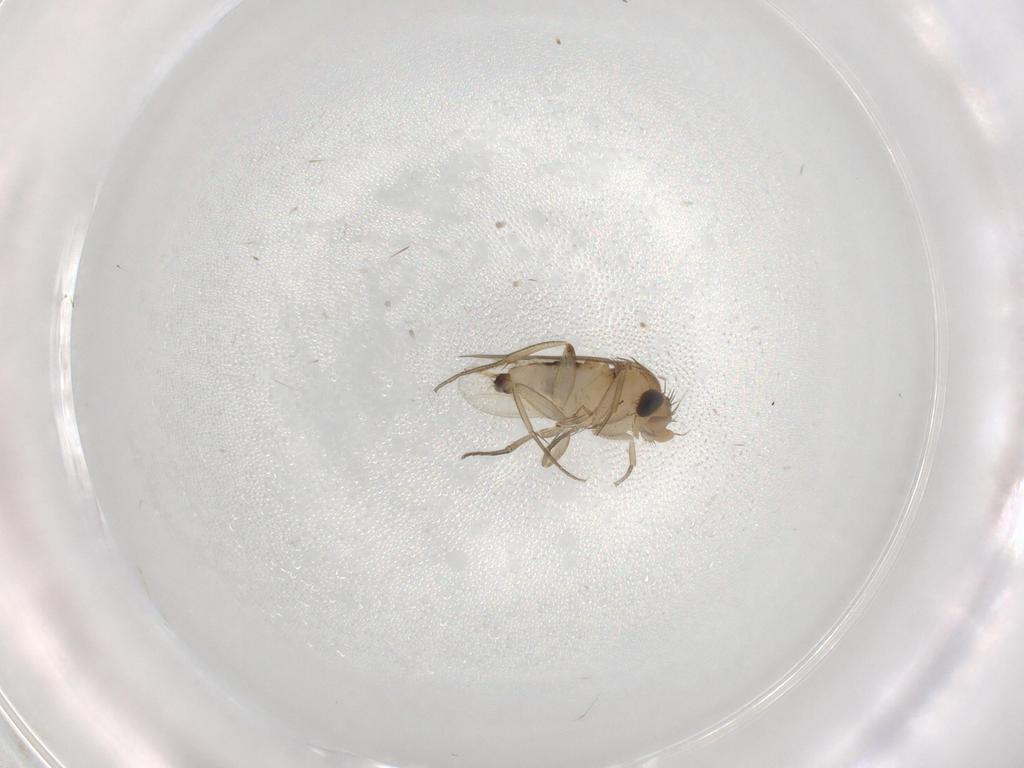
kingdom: Animalia
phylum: Arthropoda
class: Insecta
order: Diptera
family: Phoridae
